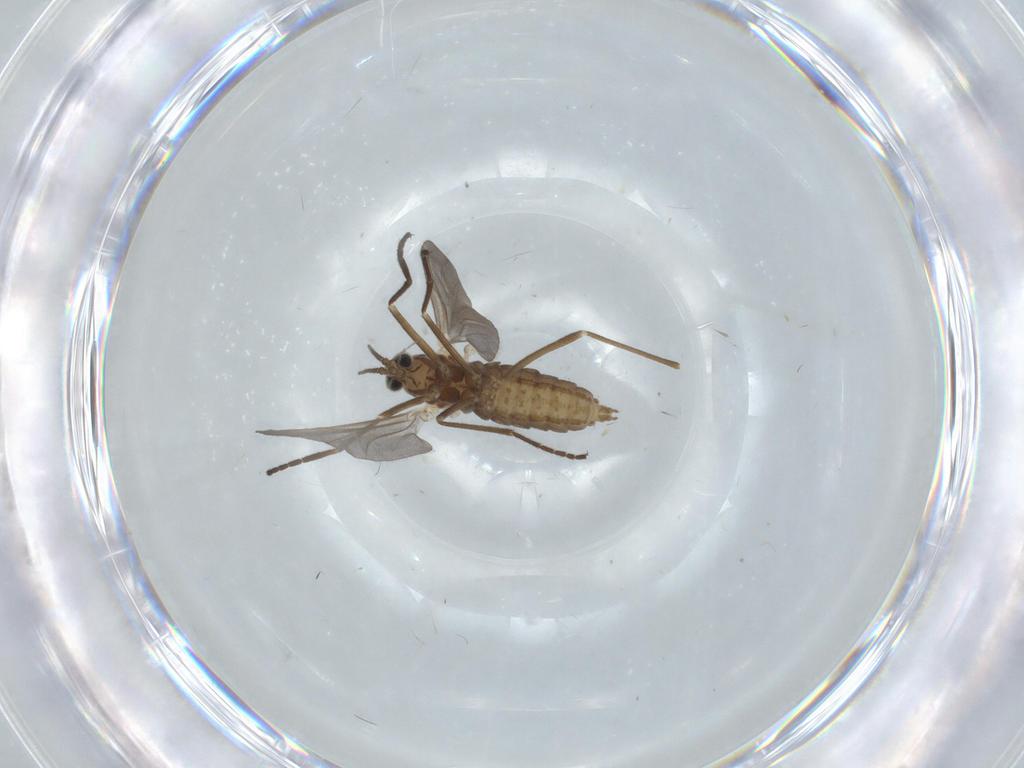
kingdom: Animalia
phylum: Arthropoda
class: Insecta
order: Diptera
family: Cecidomyiidae
